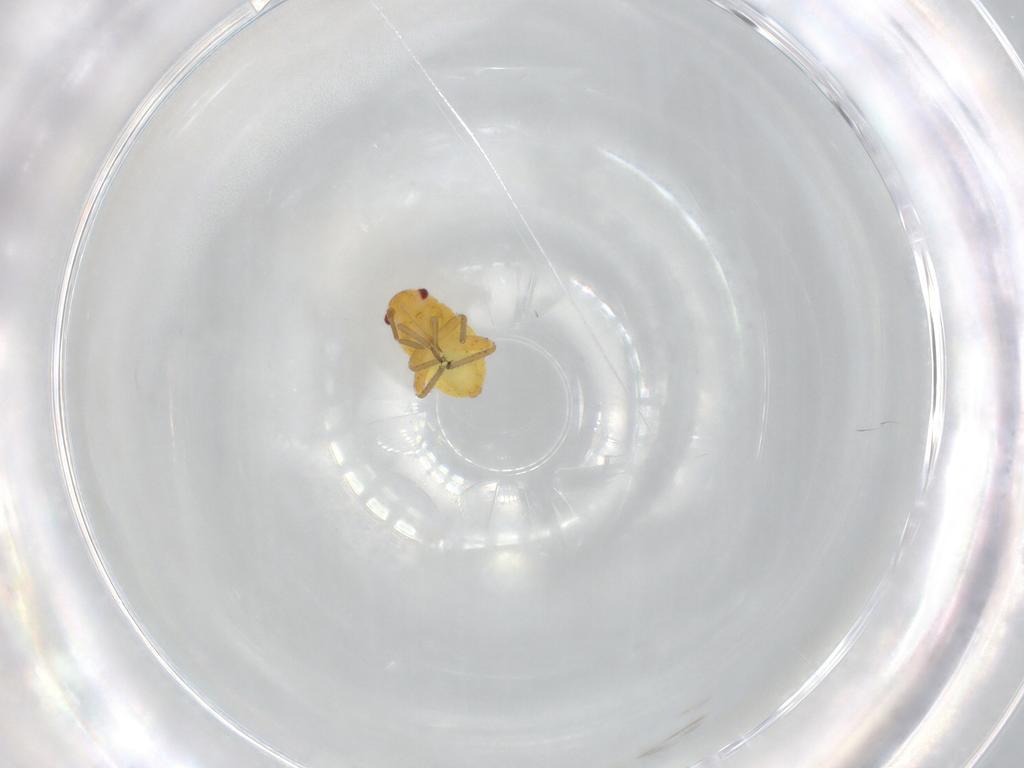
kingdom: Animalia
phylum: Arthropoda
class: Insecta
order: Hemiptera
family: Miridae
